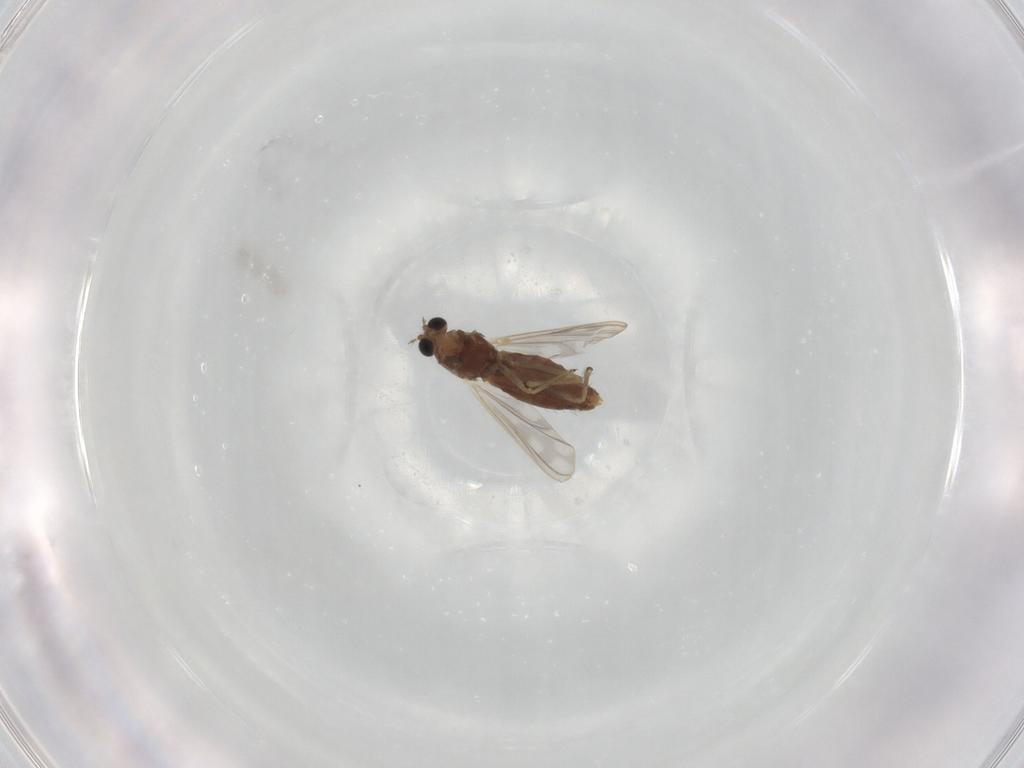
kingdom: Animalia
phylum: Arthropoda
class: Insecta
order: Diptera
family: Chironomidae
